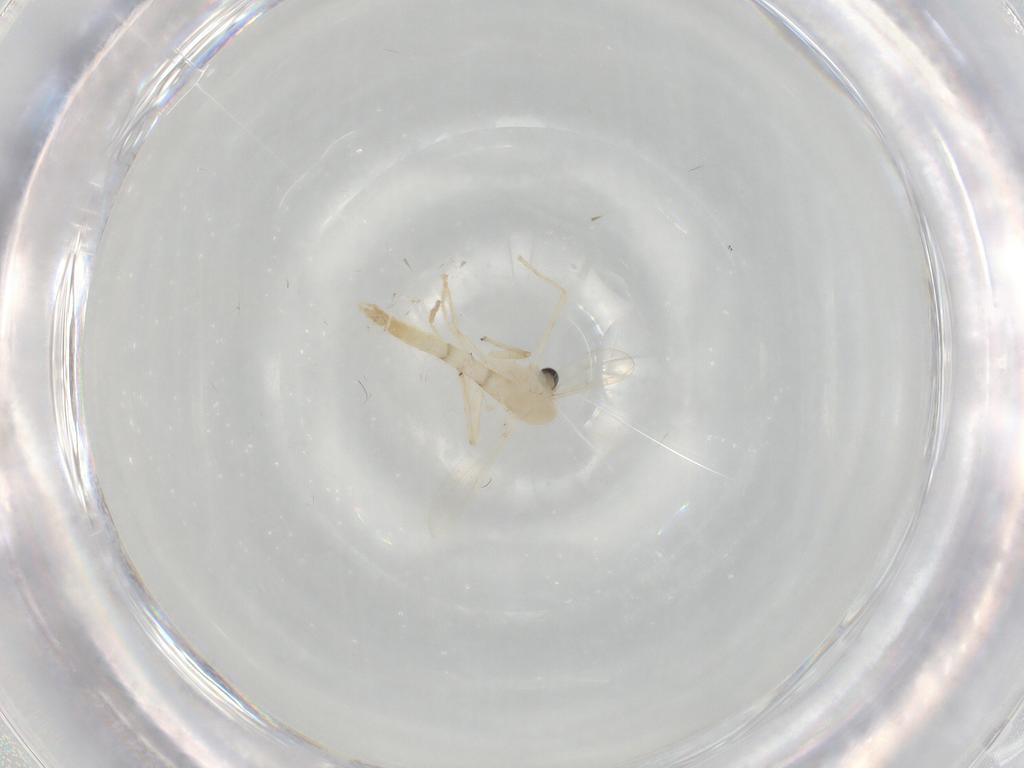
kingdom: Animalia
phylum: Arthropoda
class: Insecta
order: Diptera
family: Chironomidae
